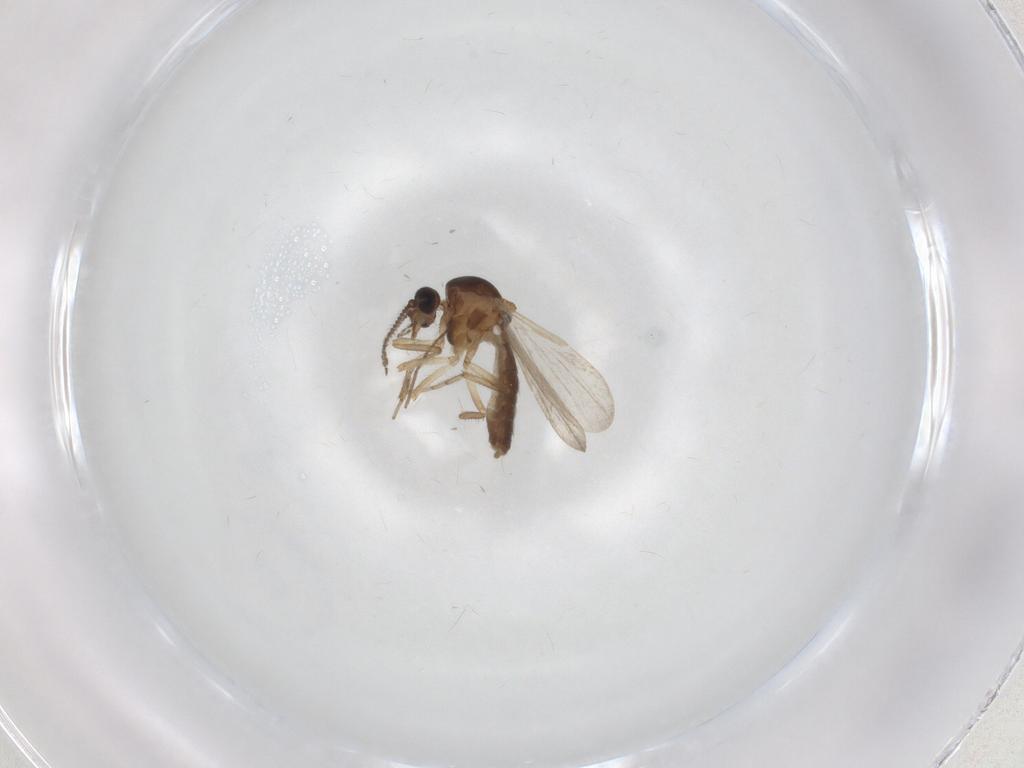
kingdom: Animalia
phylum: Arthropoda
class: Insecta
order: Diptera
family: Ceratopogonidae
